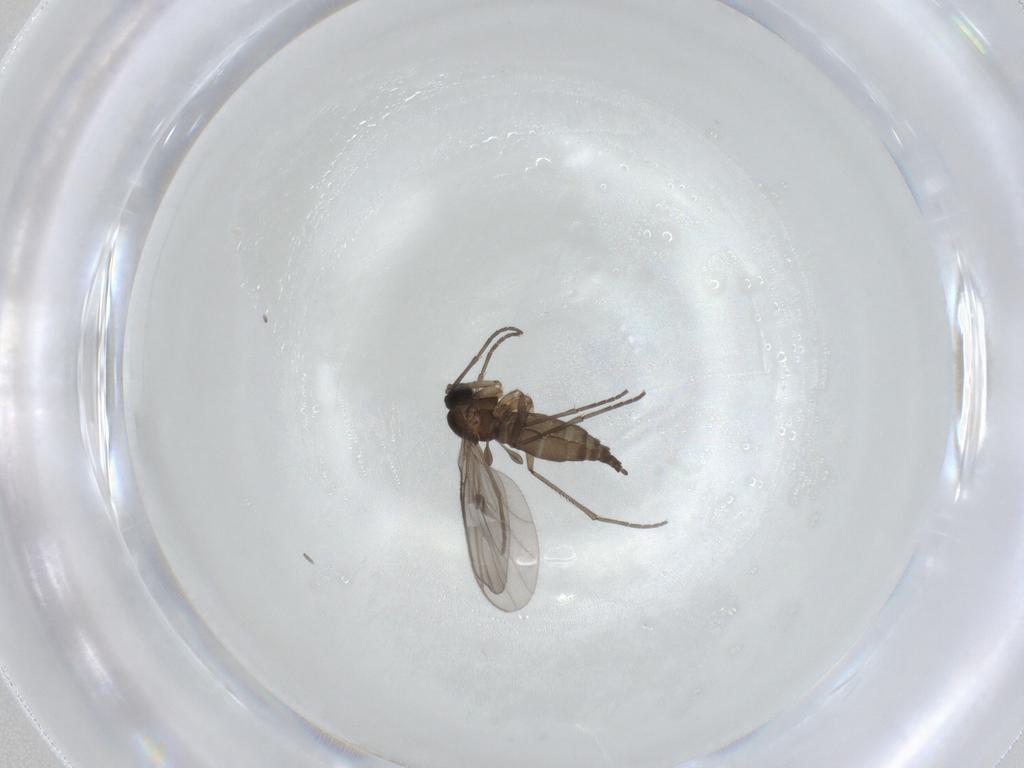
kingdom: Animalia
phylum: Arthropoda
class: Insecta
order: Diptera
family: Sciaridae
